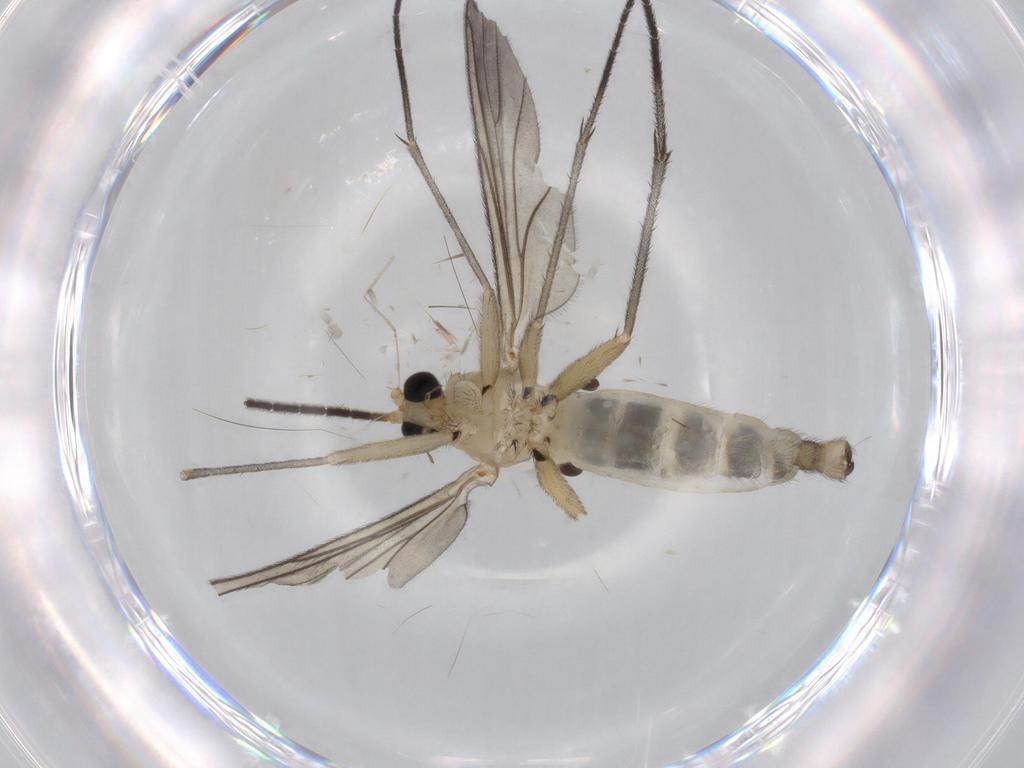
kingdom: Animalia
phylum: Arthropoda
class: Insecta
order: Diptera
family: Sciaridae
